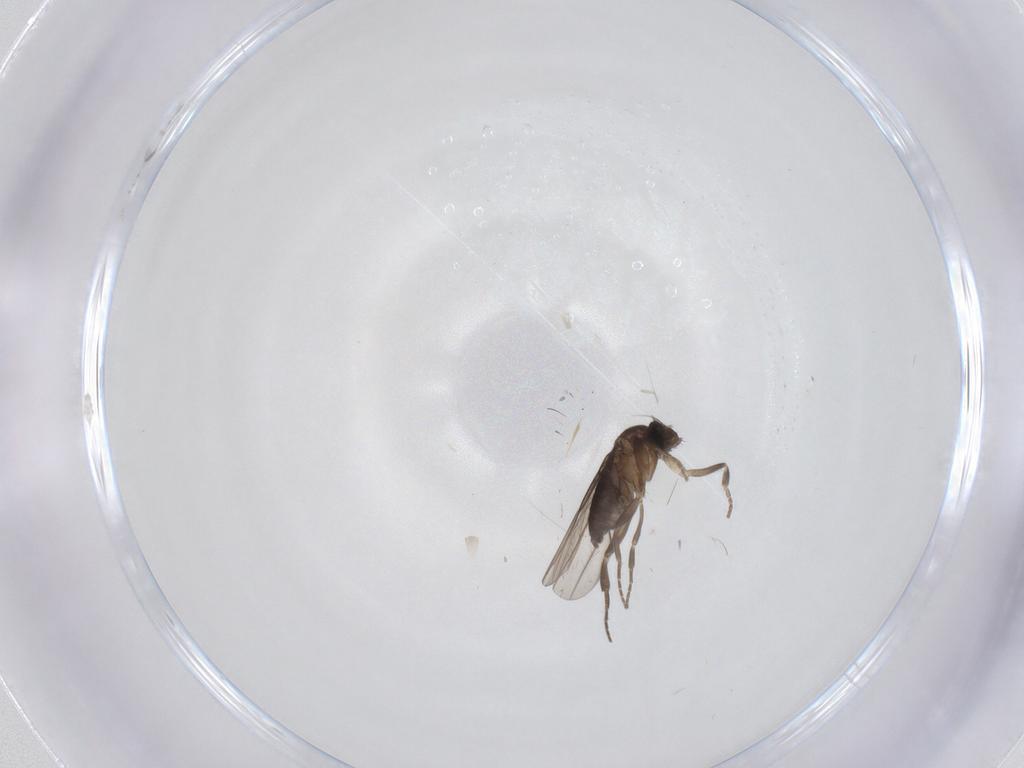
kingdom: Animalia
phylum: Arthropoda
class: Insecta
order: Diptera
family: Phoridae
